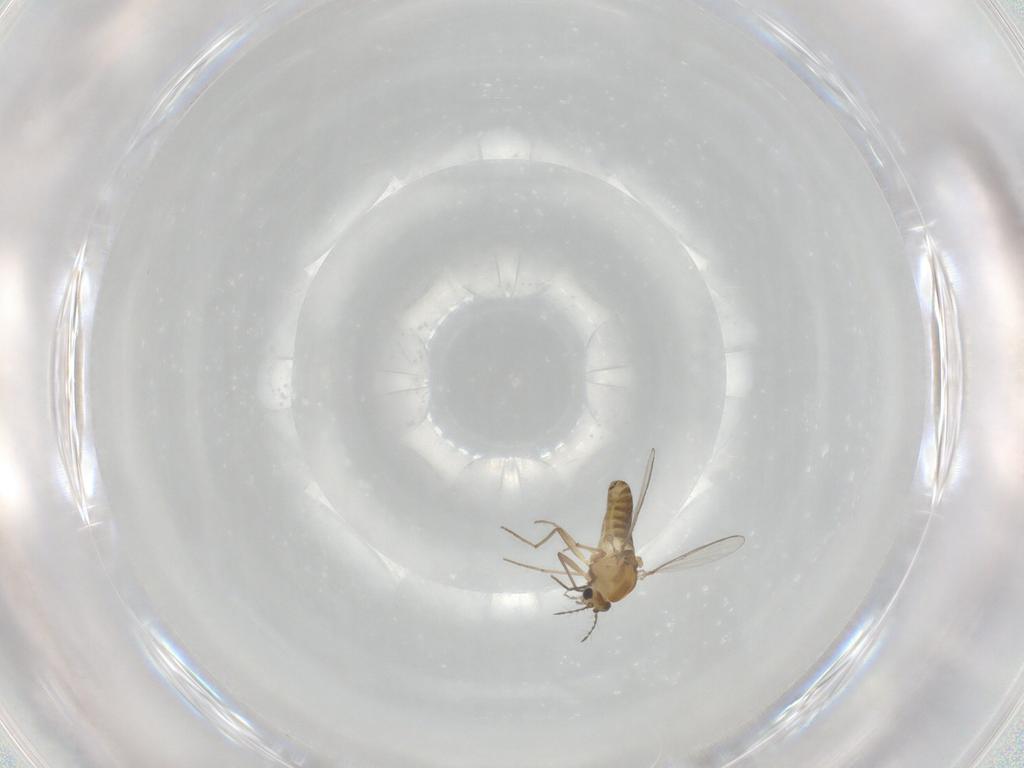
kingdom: Animalia
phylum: Arthropoda
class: Insecta
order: Diptera
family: Chironomidae
